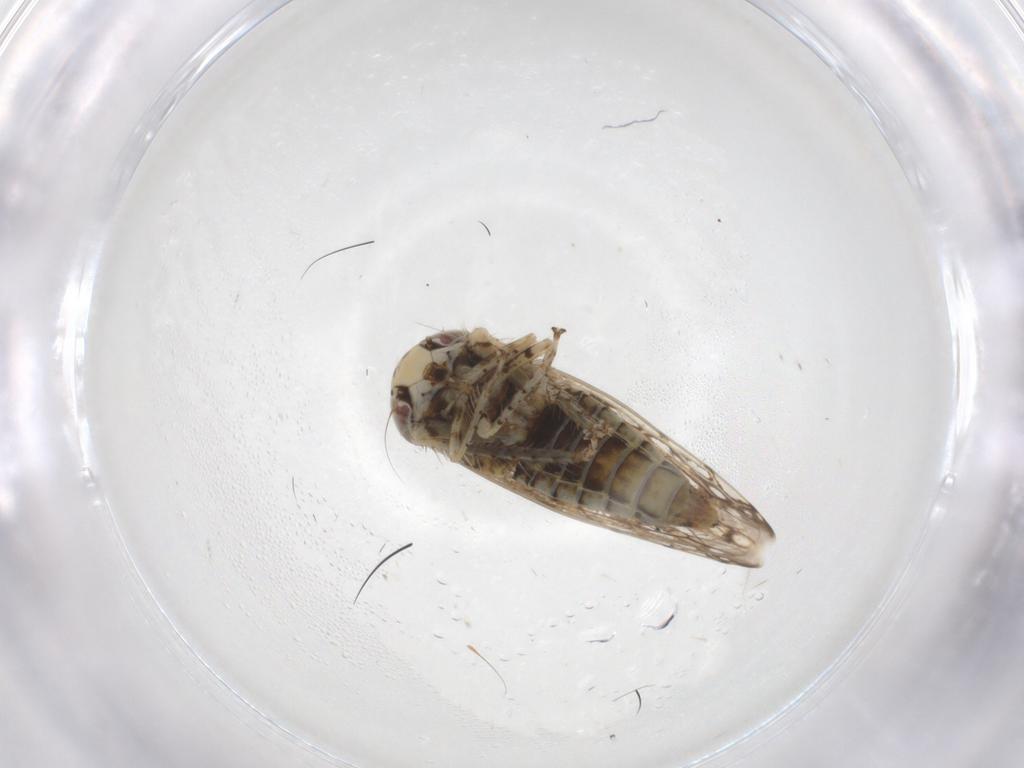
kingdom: Animalia
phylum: Arthropoda
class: Insecta
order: Hemiptera
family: Cicadellidae
